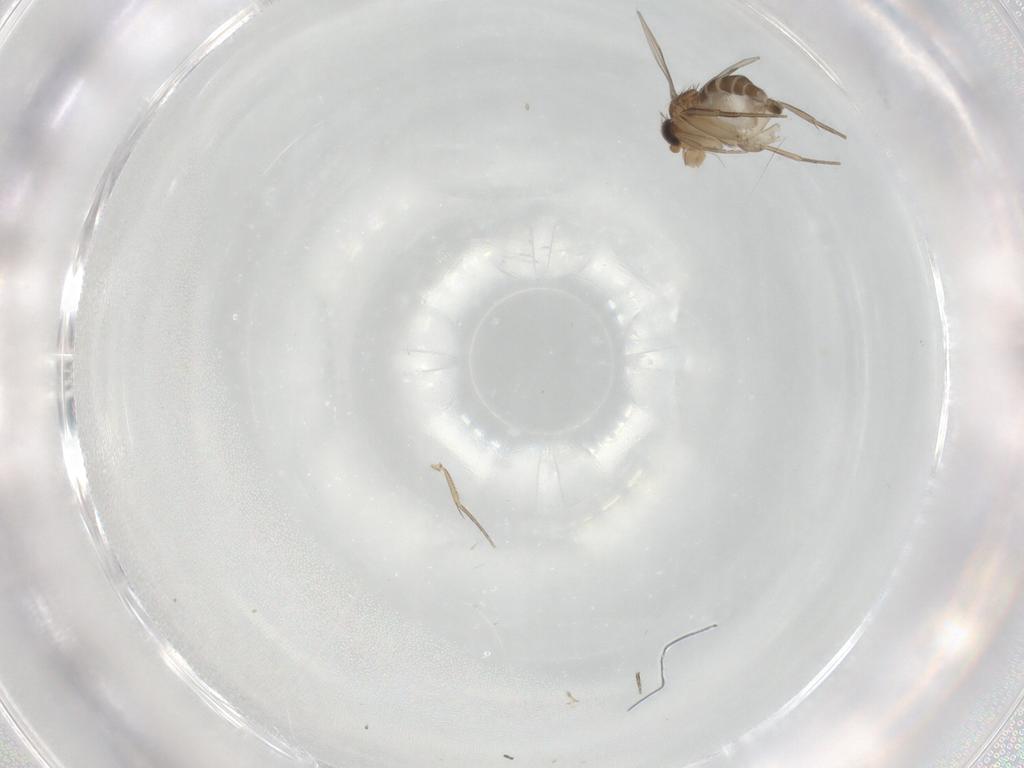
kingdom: Animalia
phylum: Arthropoda
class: Insecta
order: Diptera
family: Phoridae
